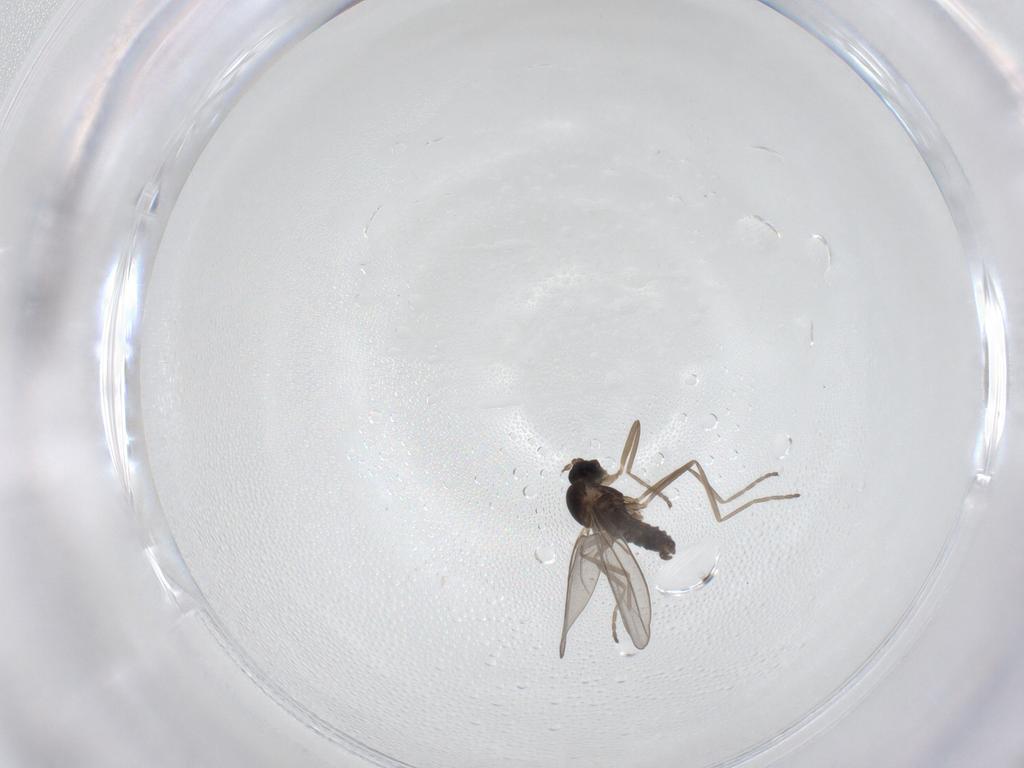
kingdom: Animalia
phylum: Arthropoda
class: Insecta
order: Diptera
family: Cecidomyiidae
